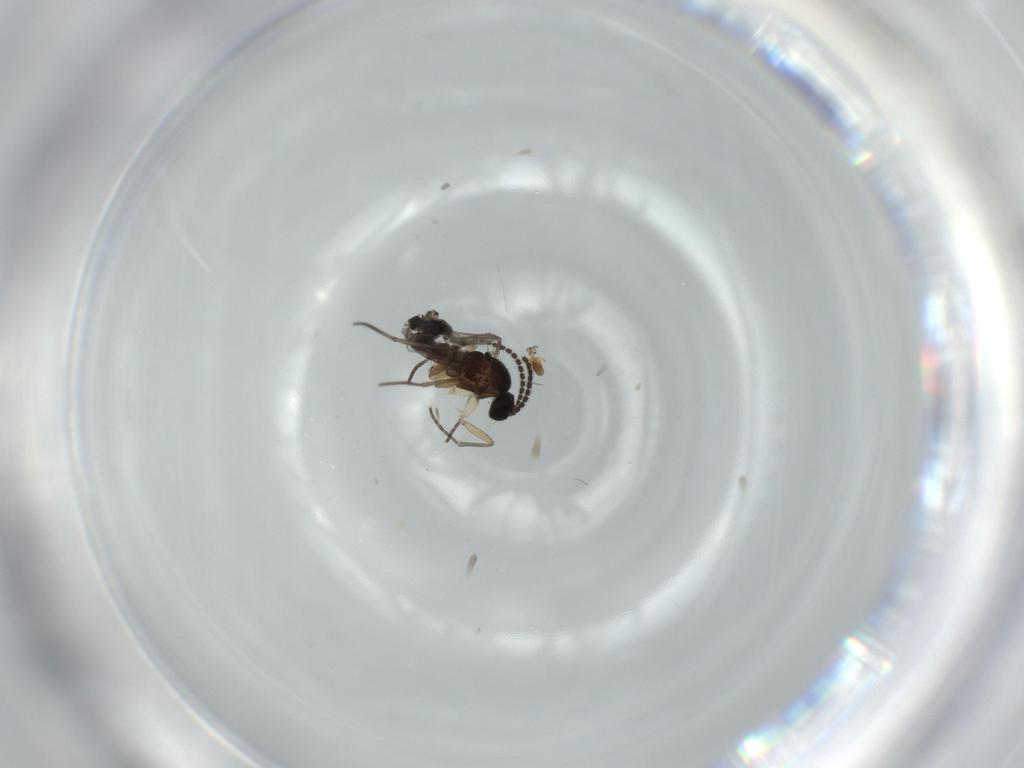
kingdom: Animalia
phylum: Arthropoda
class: Insecta
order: Diptera
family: Sciaridae
